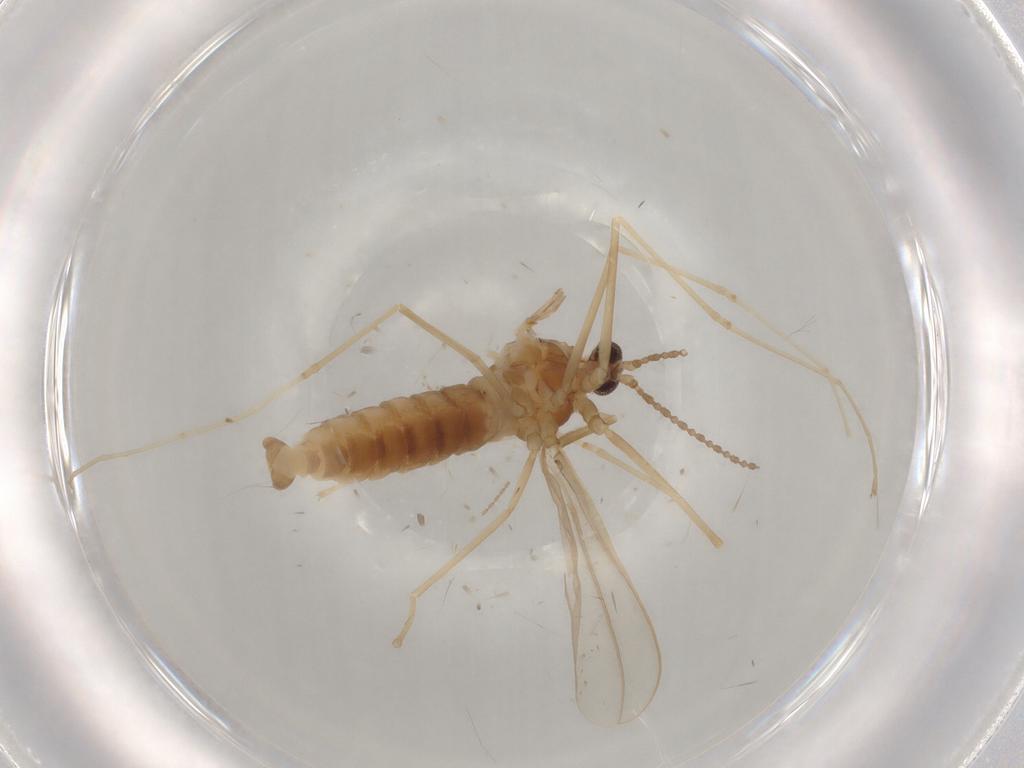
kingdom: Animalia
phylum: Arthropoda
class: Insecta
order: Diptera
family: Cecidomyiidae
